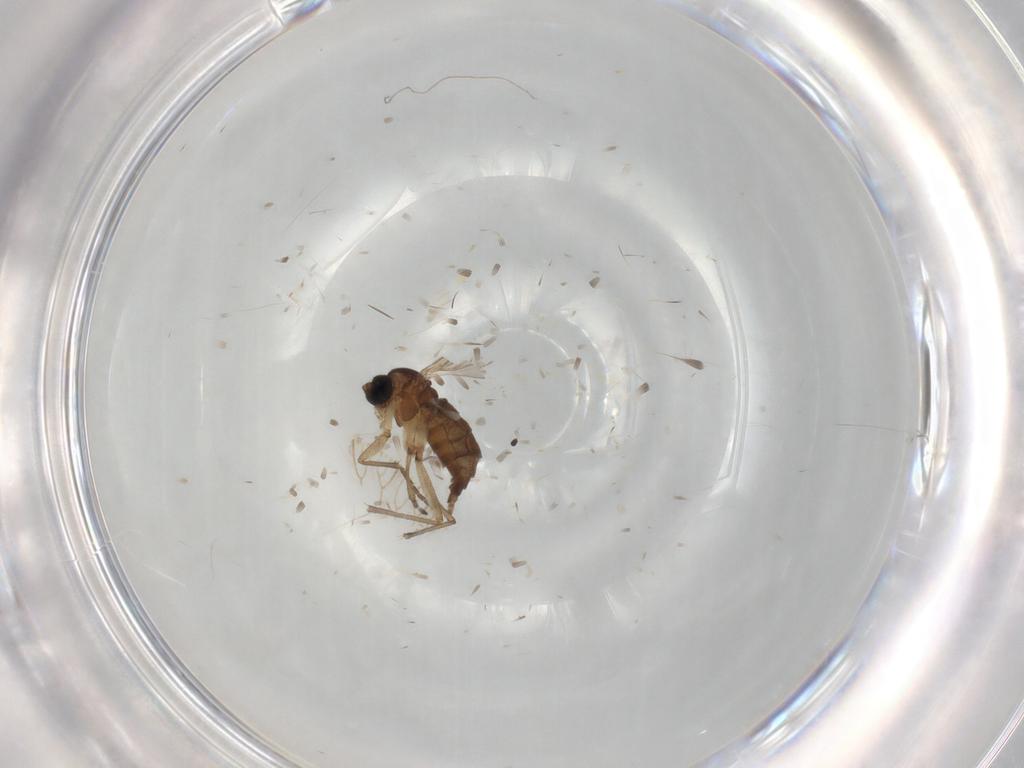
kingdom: Animalia
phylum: Arthropoda
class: Insecta
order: Diptera
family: Sciaridae
